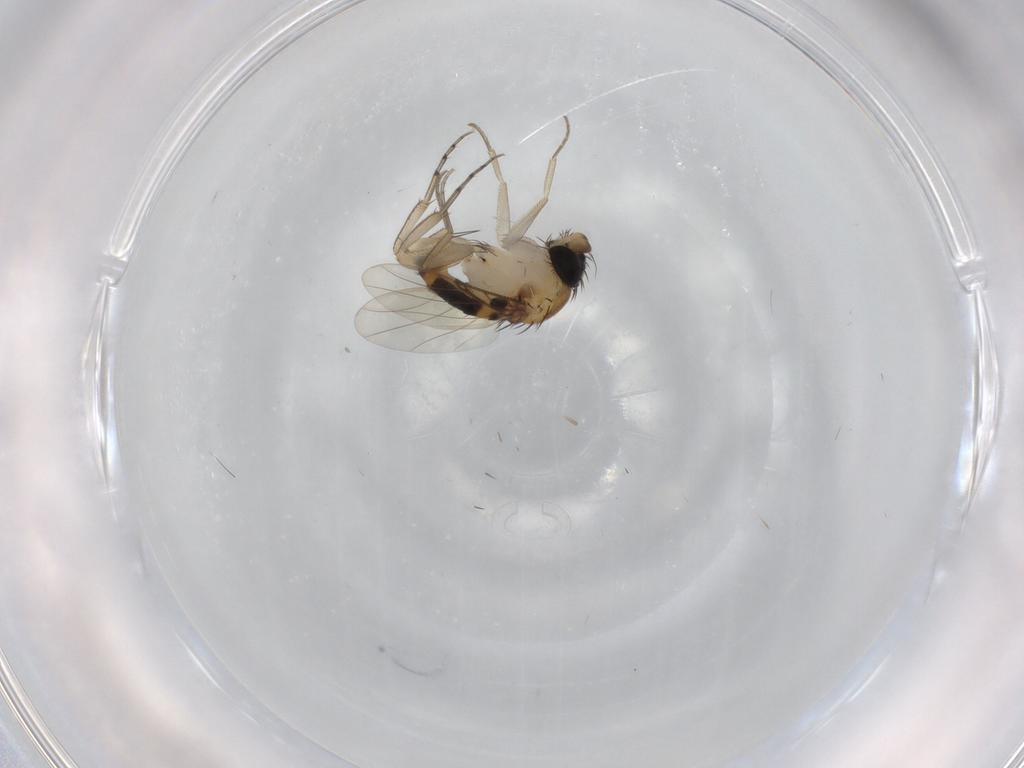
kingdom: Animalia
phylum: Arthropoda
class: Insecta
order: Diptera
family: Phoridae
